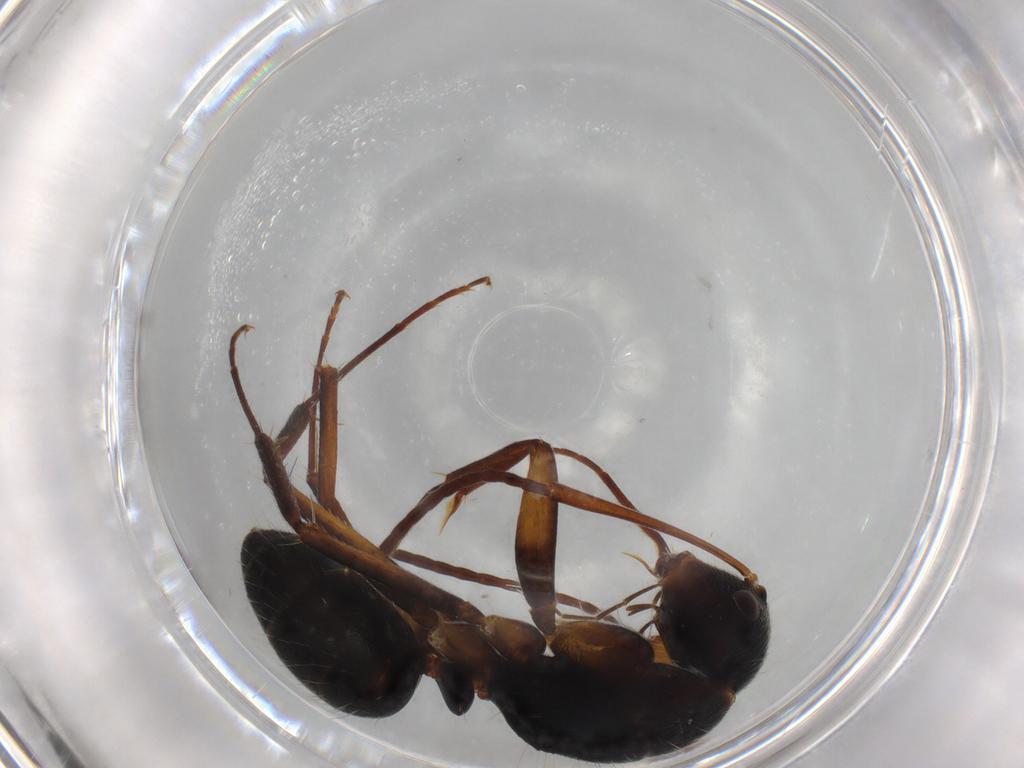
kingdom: Animalia
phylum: Arthropoda
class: Insecta
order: Hymenoptera
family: Formicidae
